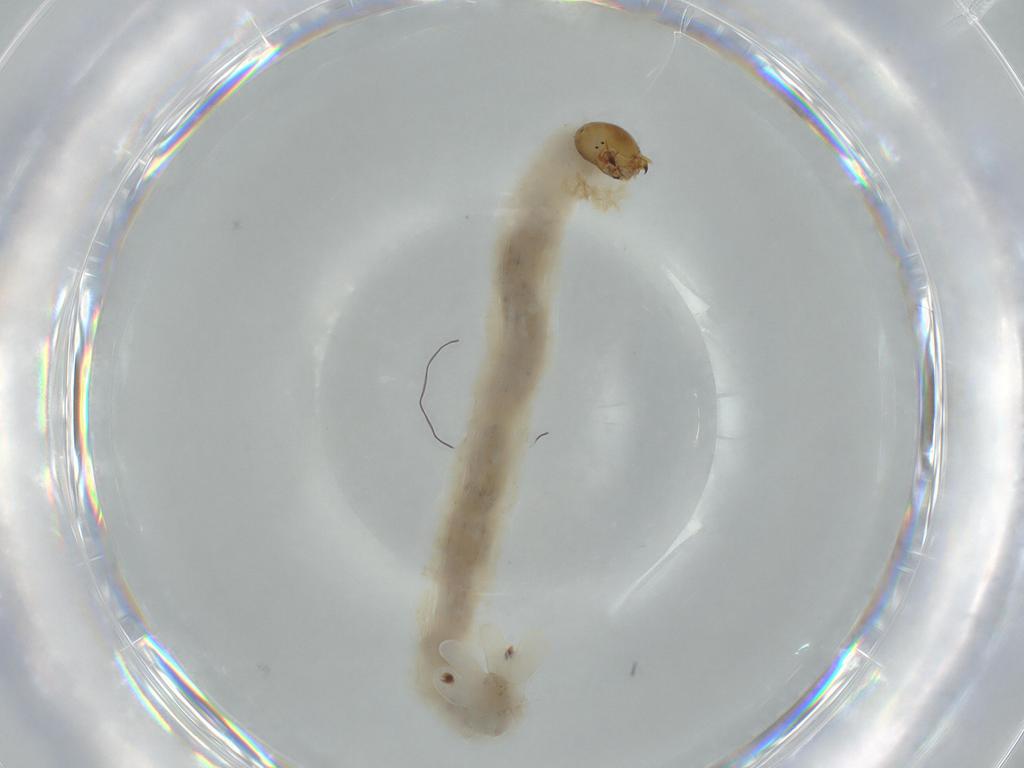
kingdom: Animalia
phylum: Arthropoda
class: Insecta
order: Diptera
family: Chironomidae
